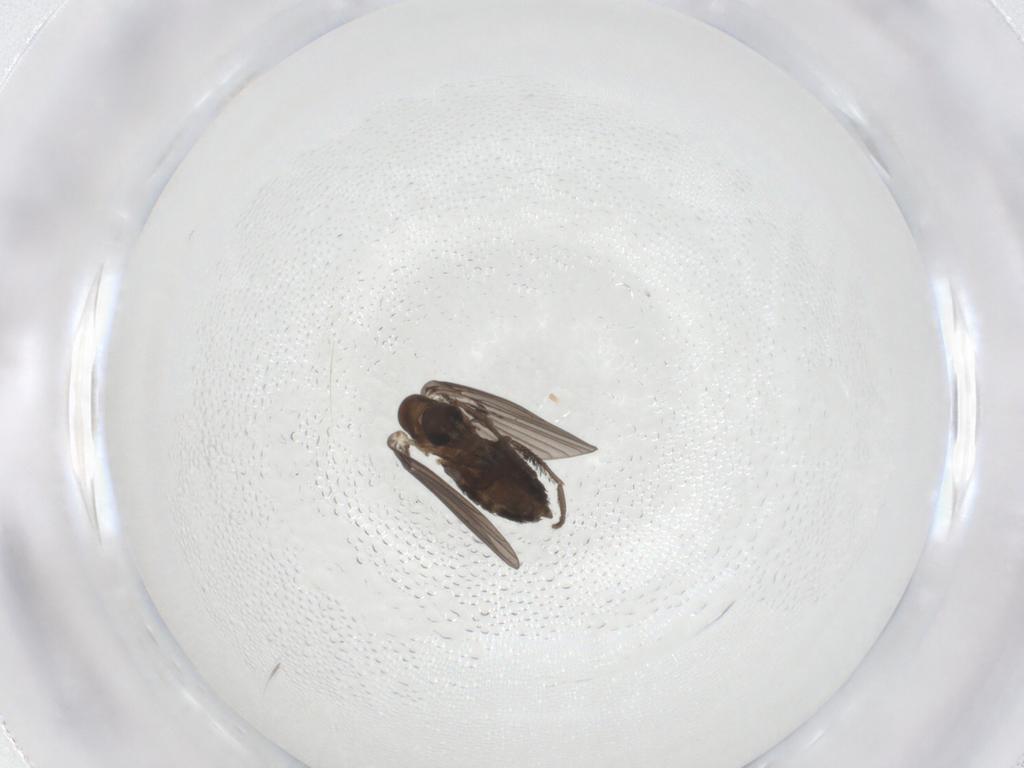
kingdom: Animalia
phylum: Arthropoda
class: Insecta
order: Diptera
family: Psychodidae
